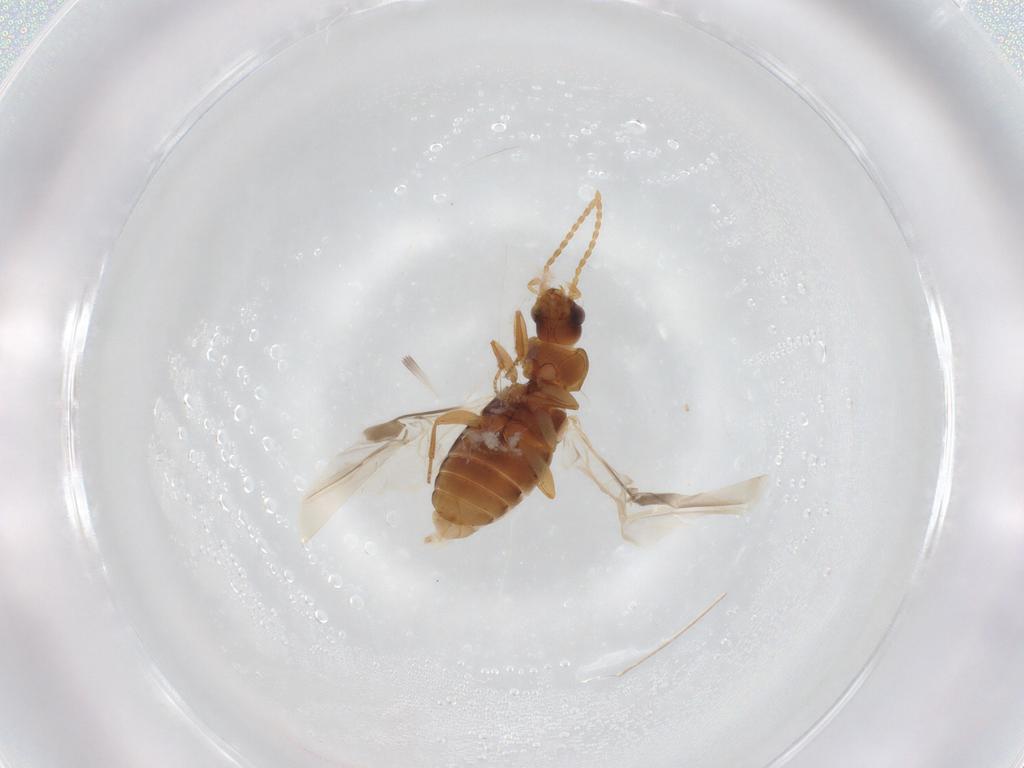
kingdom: Animalia
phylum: Arthropoda
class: Insecta
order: Coleoptera
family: Carabidae
